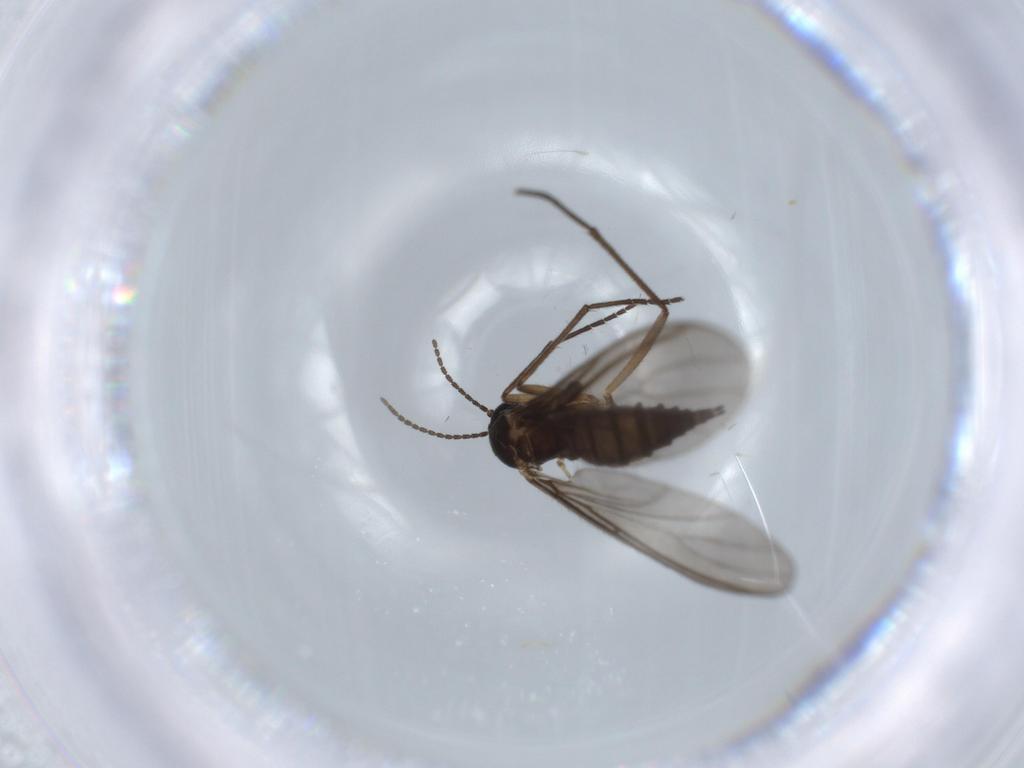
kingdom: Animalia
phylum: Arthropoda
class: Insecta
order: Diptera
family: Sciaridae
